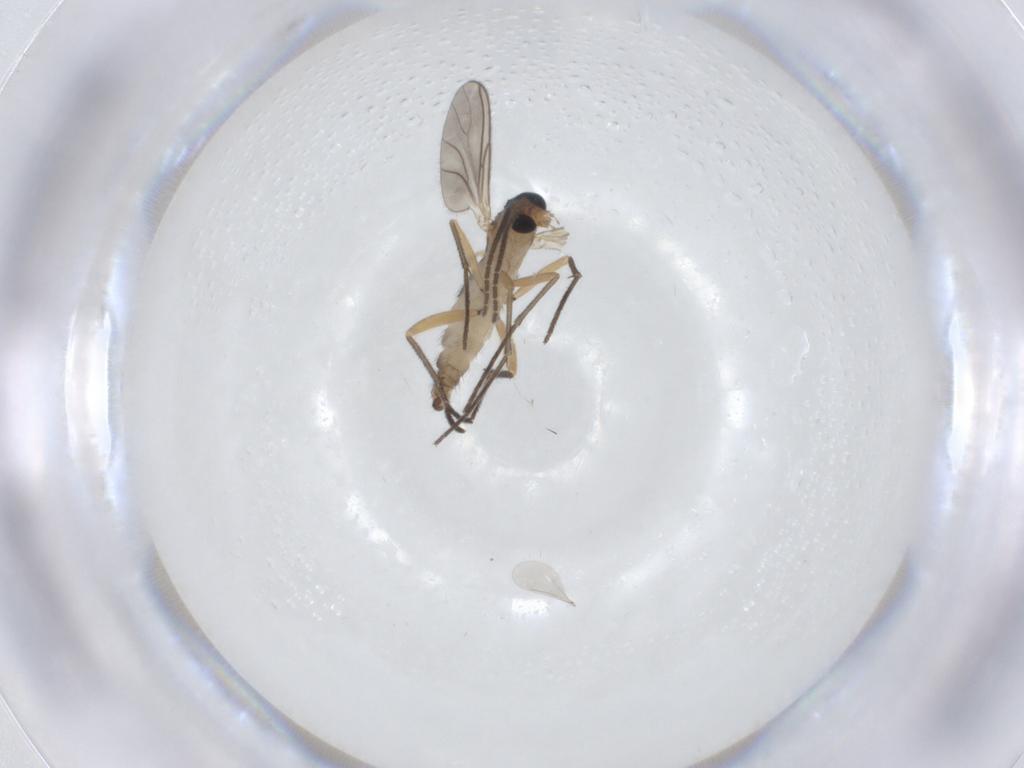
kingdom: Animalia
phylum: Arthropoda
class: Insecta
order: Diptera
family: Sciaridae
